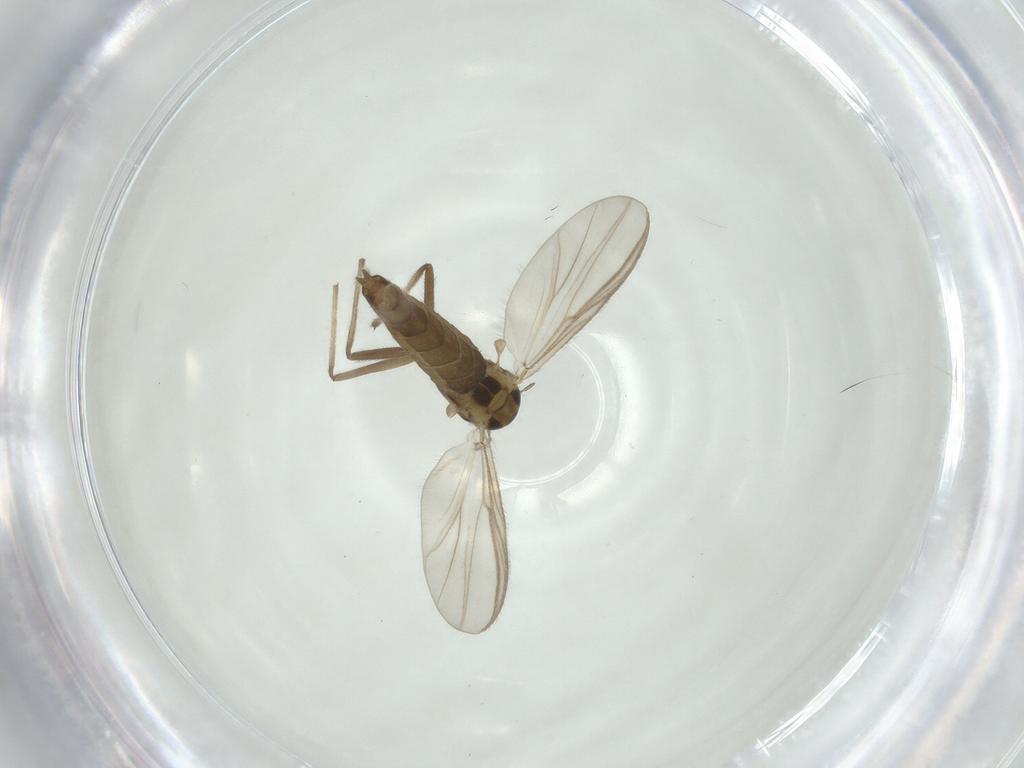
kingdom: Animalia
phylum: Arthropoda
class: Insecta
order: Diptera
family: Chironomidae
